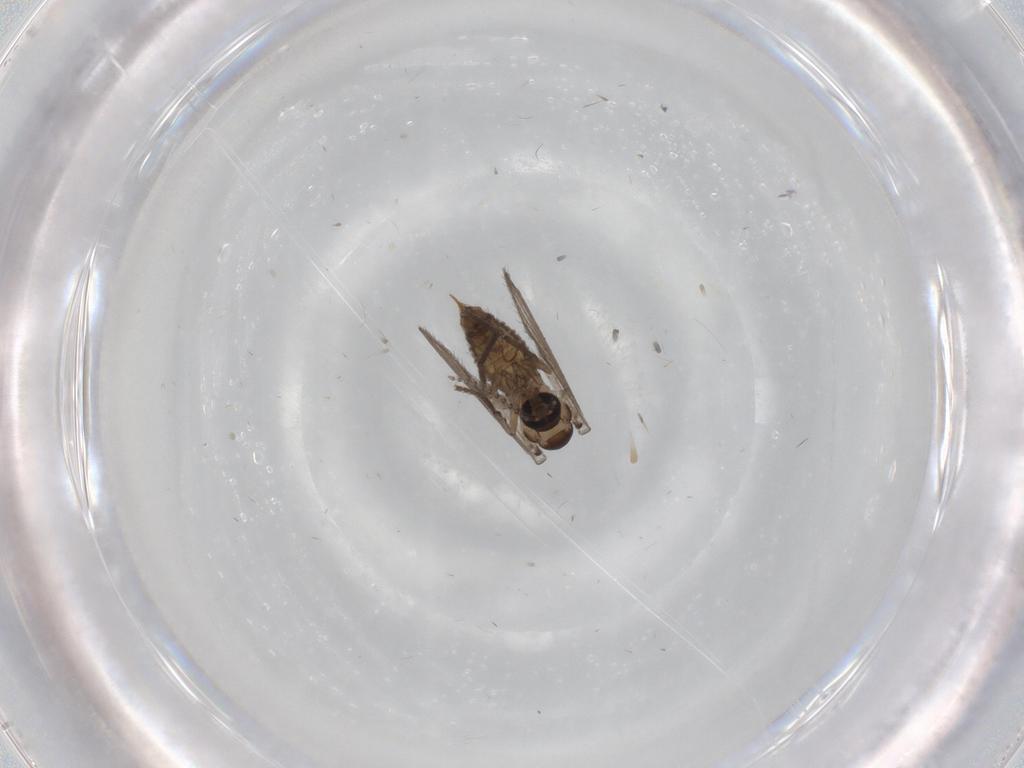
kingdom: Animalia
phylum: Arthropoda
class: Insecta
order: Diptera
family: Psychodidae
